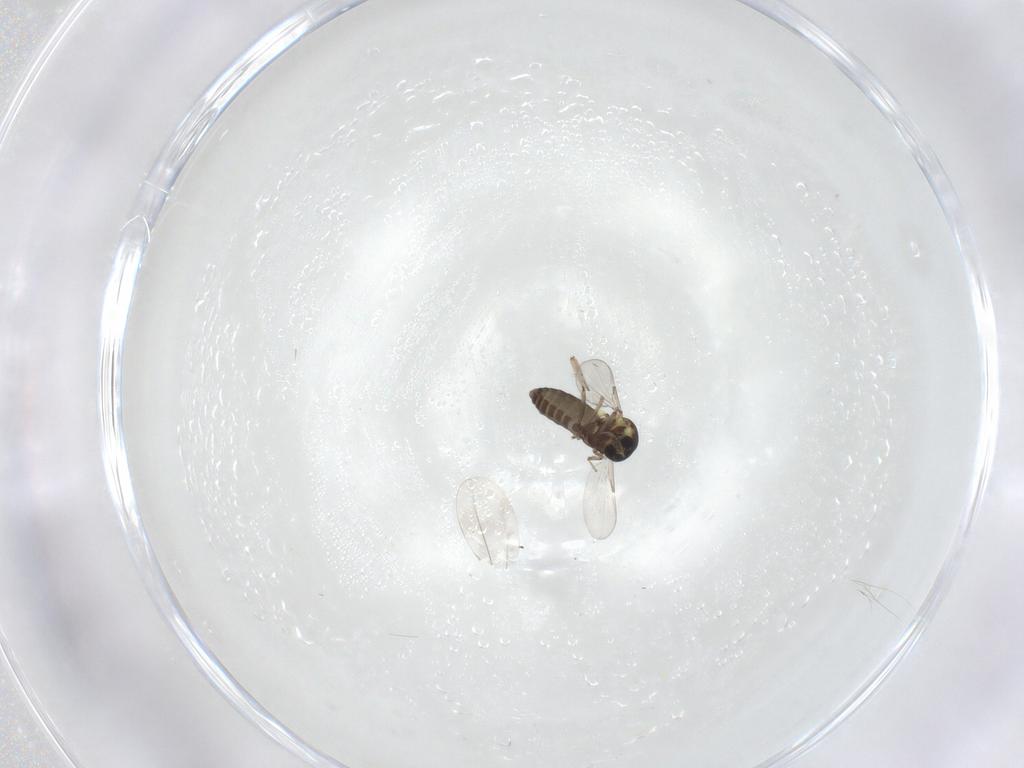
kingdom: Animalia
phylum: Arthropoda
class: Insecta
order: Diptera
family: Ceratopogonidae
